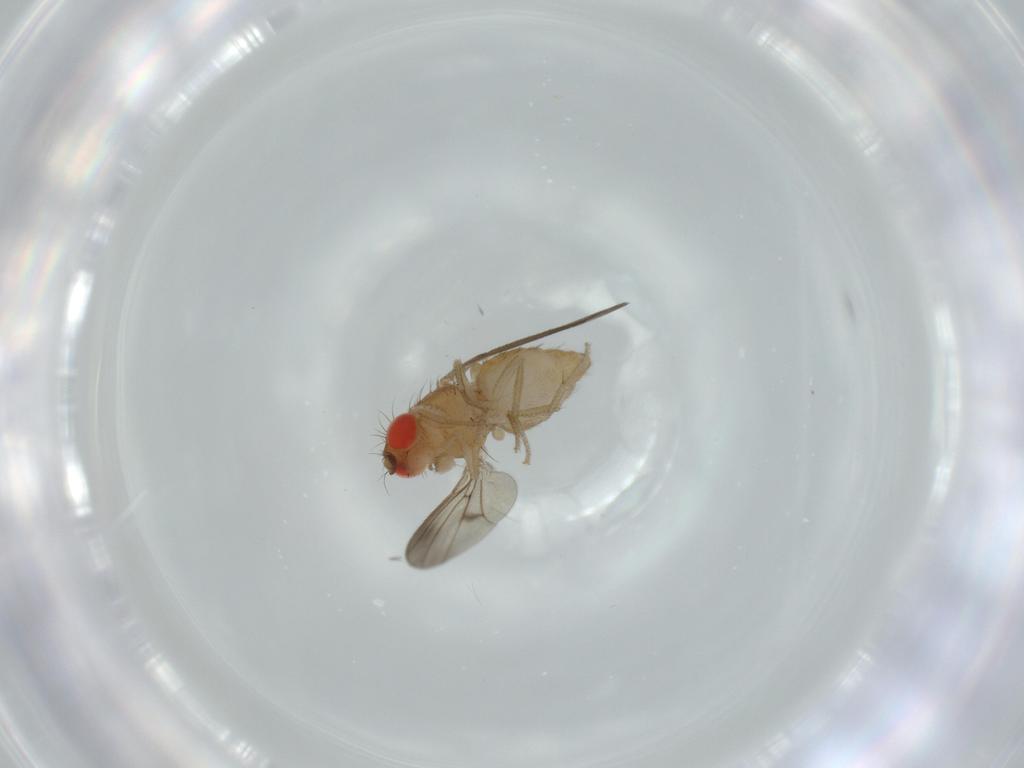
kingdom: Animalia
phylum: Arthropoda
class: Insecta
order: Diptera
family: Drosophilidae
